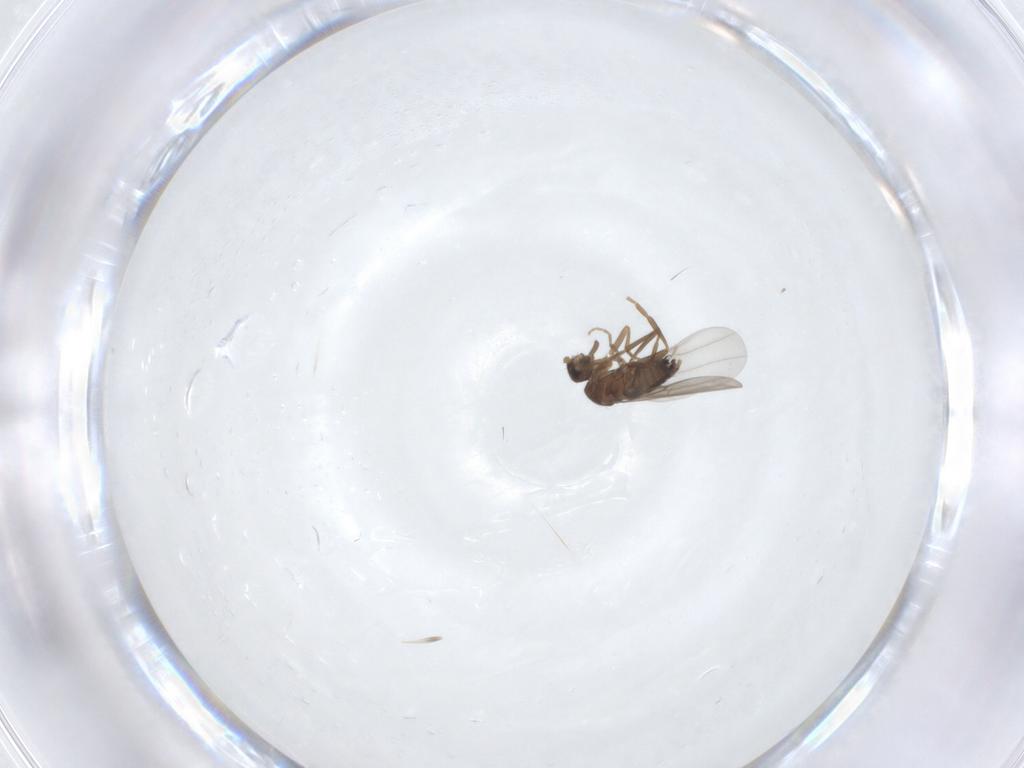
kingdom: Animalia
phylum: Arthropoda
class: Insecta
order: Diptera
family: Phoridae
